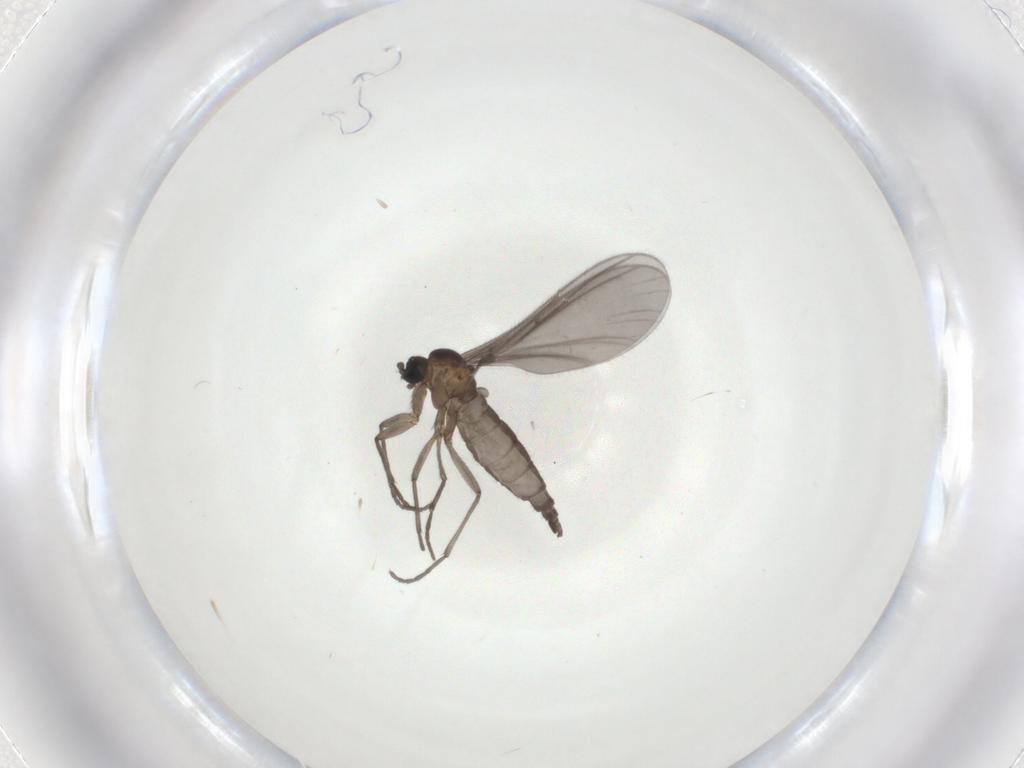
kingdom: Animalia
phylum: Arthropoda
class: Insecta
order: Diptera
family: Sciaridae
